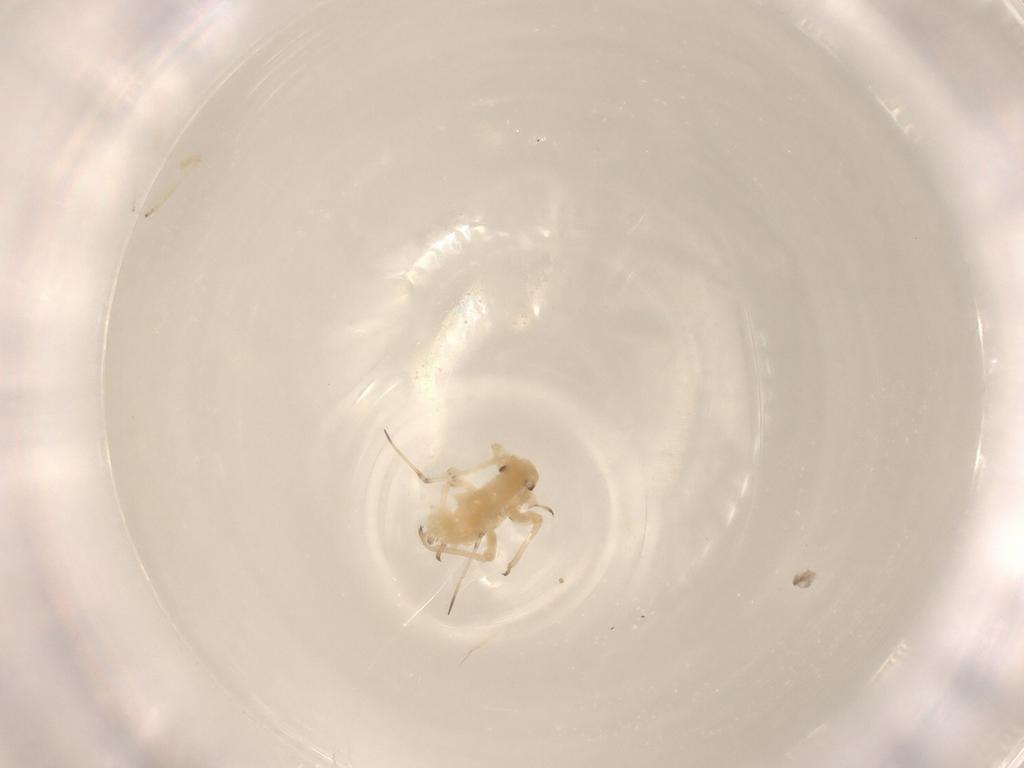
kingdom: Animalia
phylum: Arthropoda
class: Insecta
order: Hemiptera
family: Aphididae
